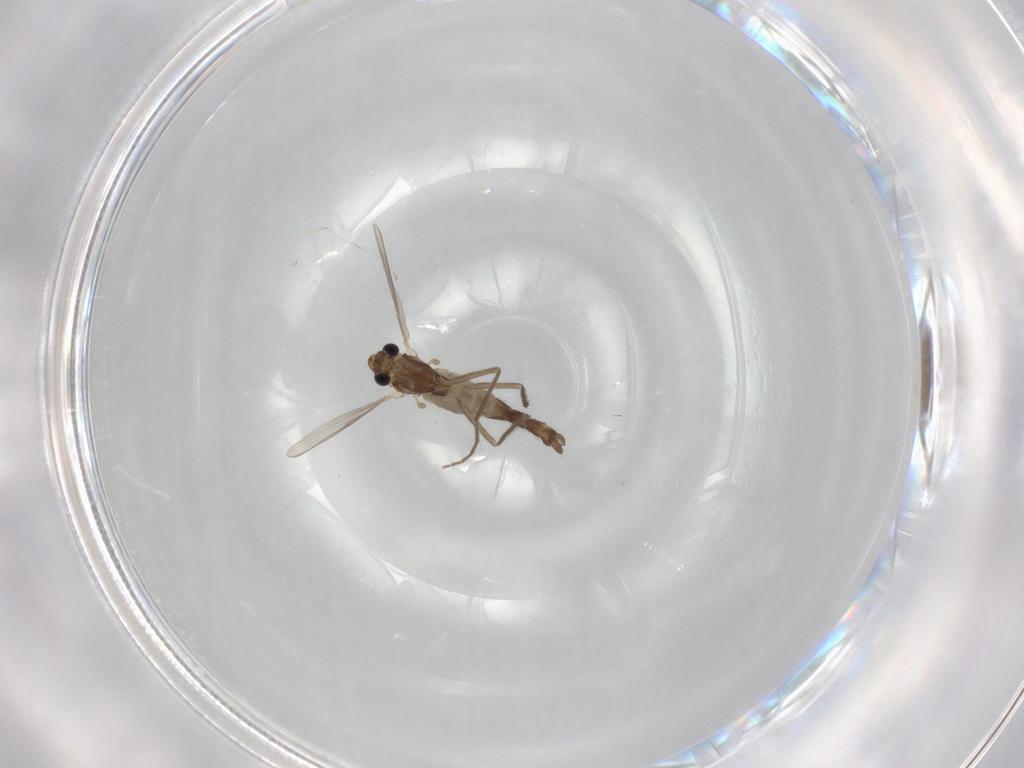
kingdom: Animalia
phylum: Arthropoda
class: Insecta
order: Diptera
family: Chironomidae
